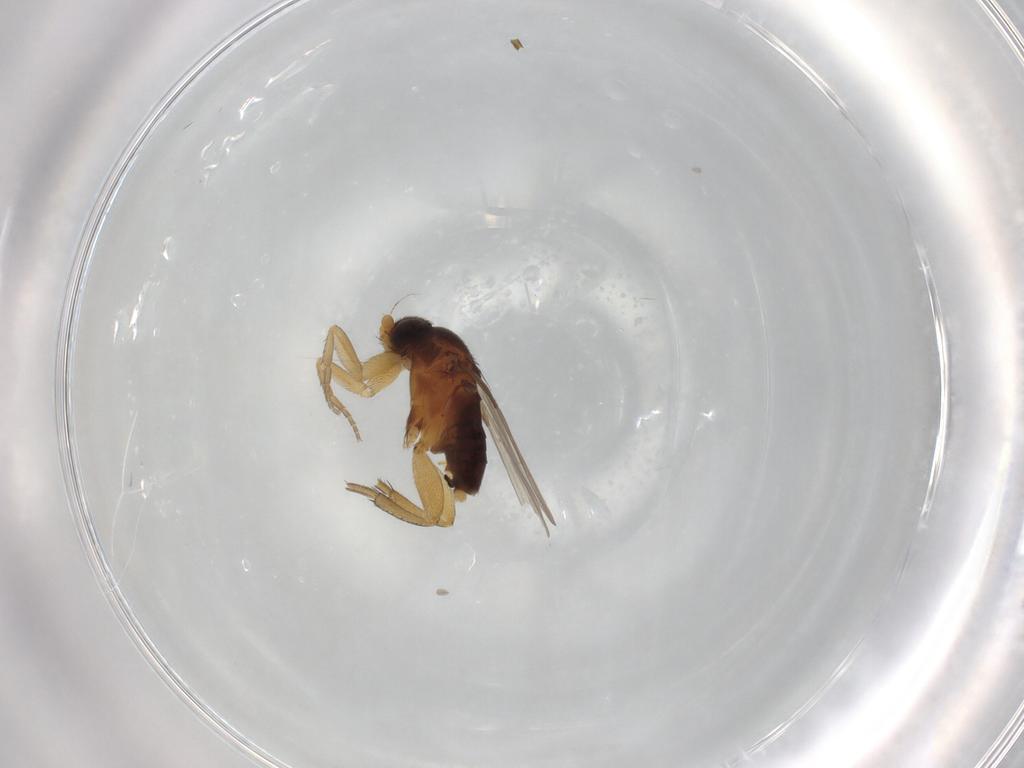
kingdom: Animalia
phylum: Arthropoda
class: Insecta
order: Diptera
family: Phoridae
